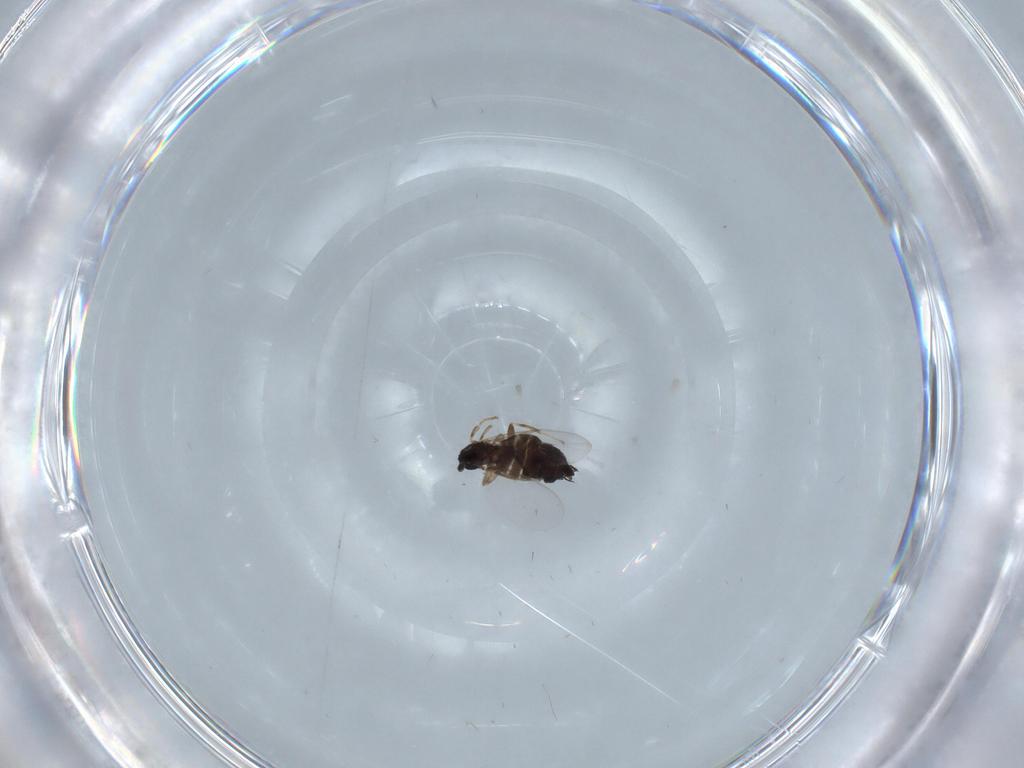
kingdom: Animalia
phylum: Arthropoda
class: Insecta
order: Diptera
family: Scatopsidae
